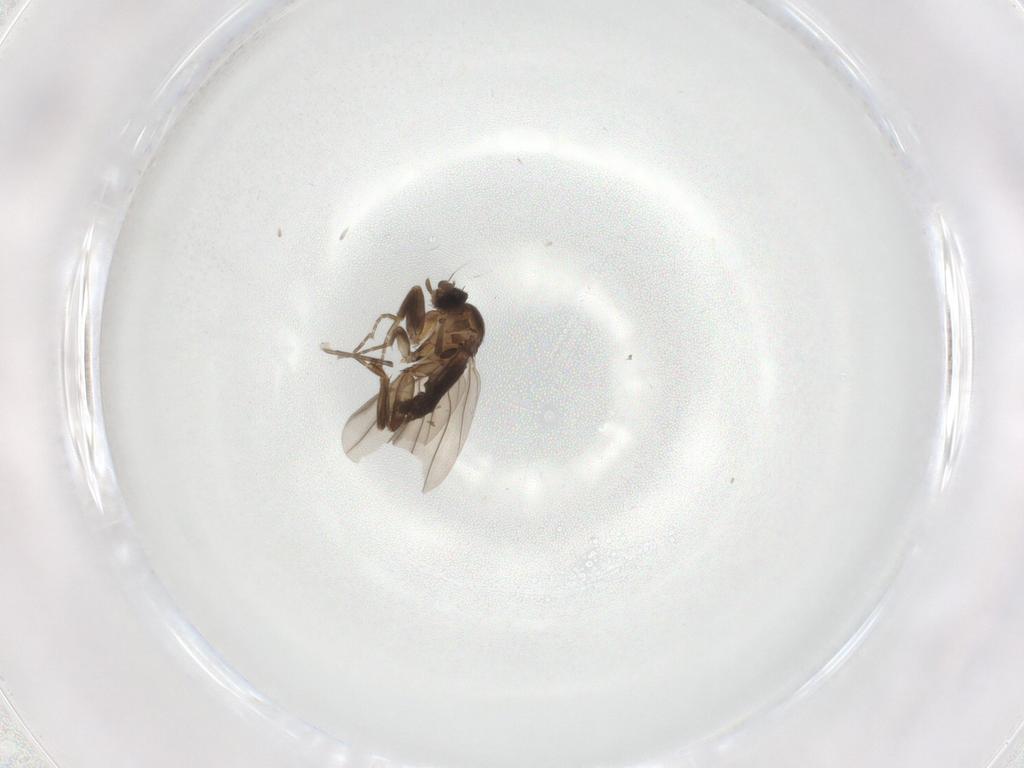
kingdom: Animalia
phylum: Arthropoda
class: Insecta
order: Diptera
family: Phoridae
